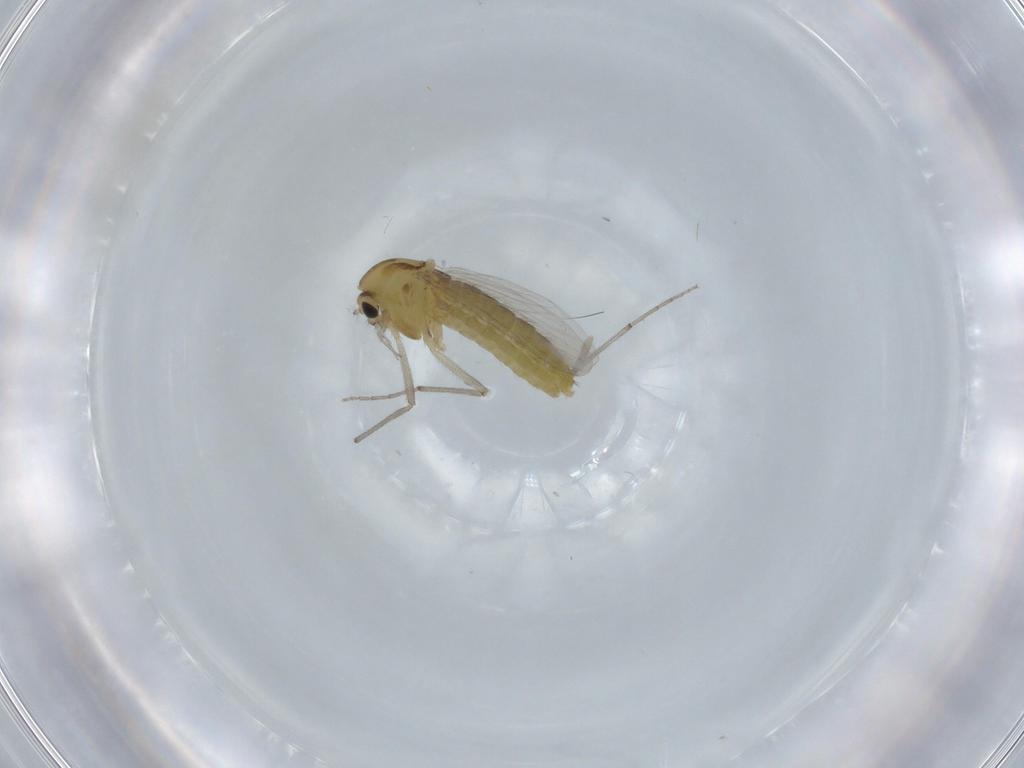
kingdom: Animalia
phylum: Arthropoda
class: Insecta
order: Diptera
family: Chironomidae
